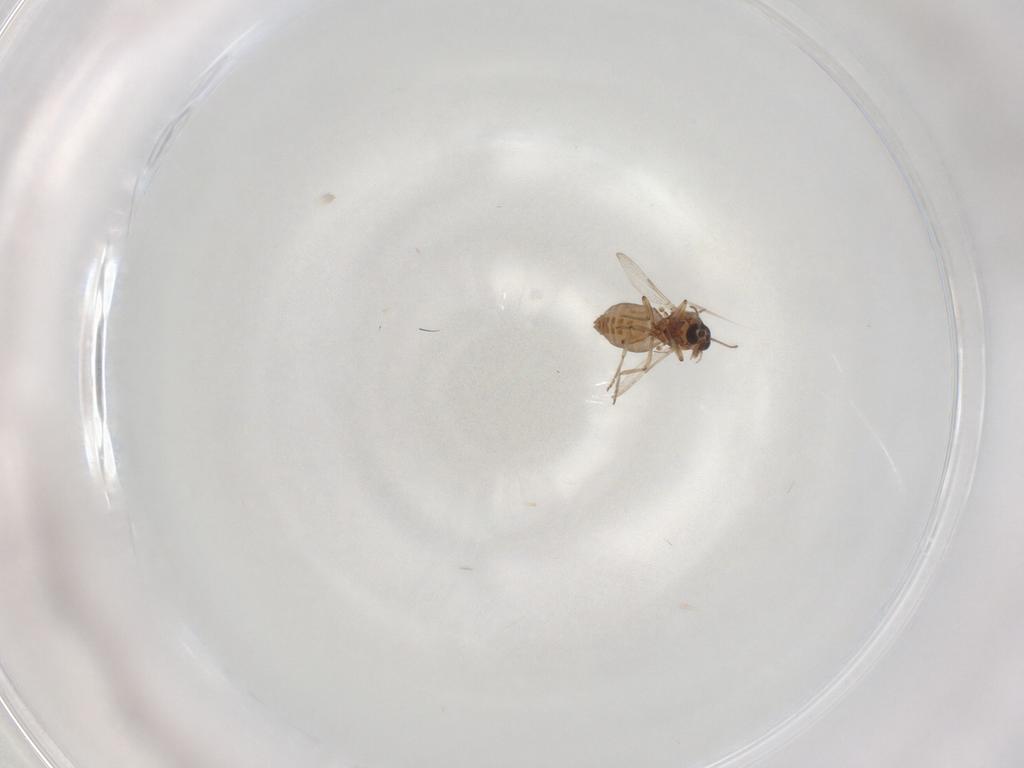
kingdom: Animalia
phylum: Arthropoda
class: Insecta
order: Diptera
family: Ceratopogonidae
